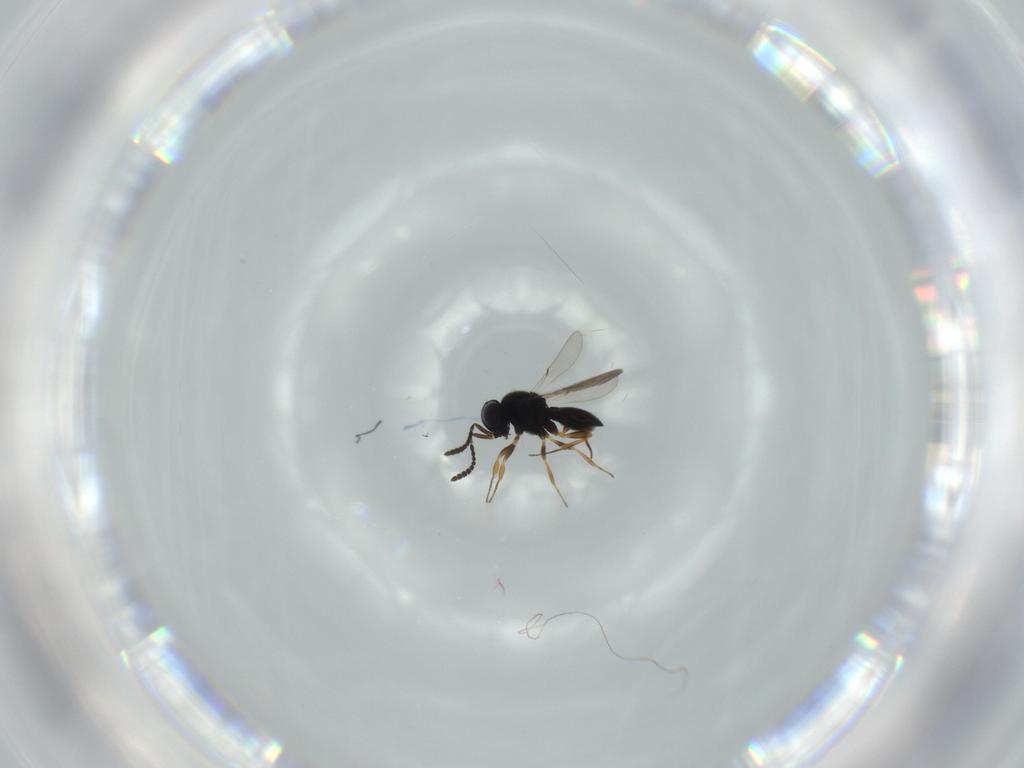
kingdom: Animalia
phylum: Arthropoda
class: Insecta
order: Hymenoptera
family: Scelionidae
